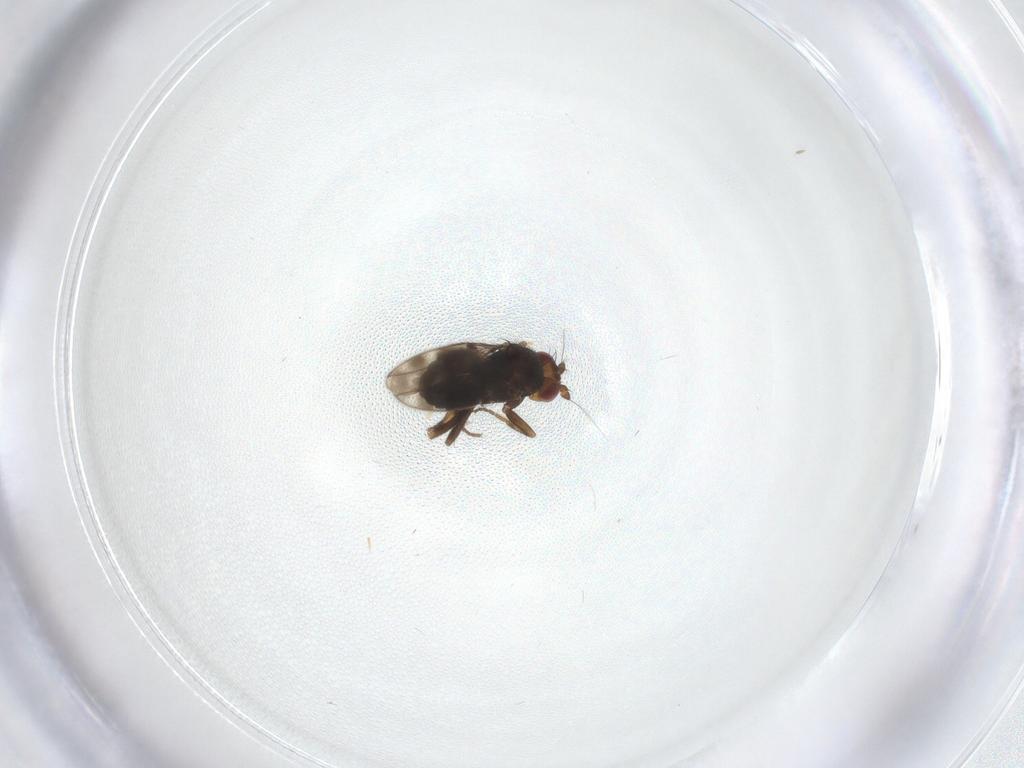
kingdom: Animalia
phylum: Arthropoda
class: Insecta
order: Diptera
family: Sphaeroceridae
